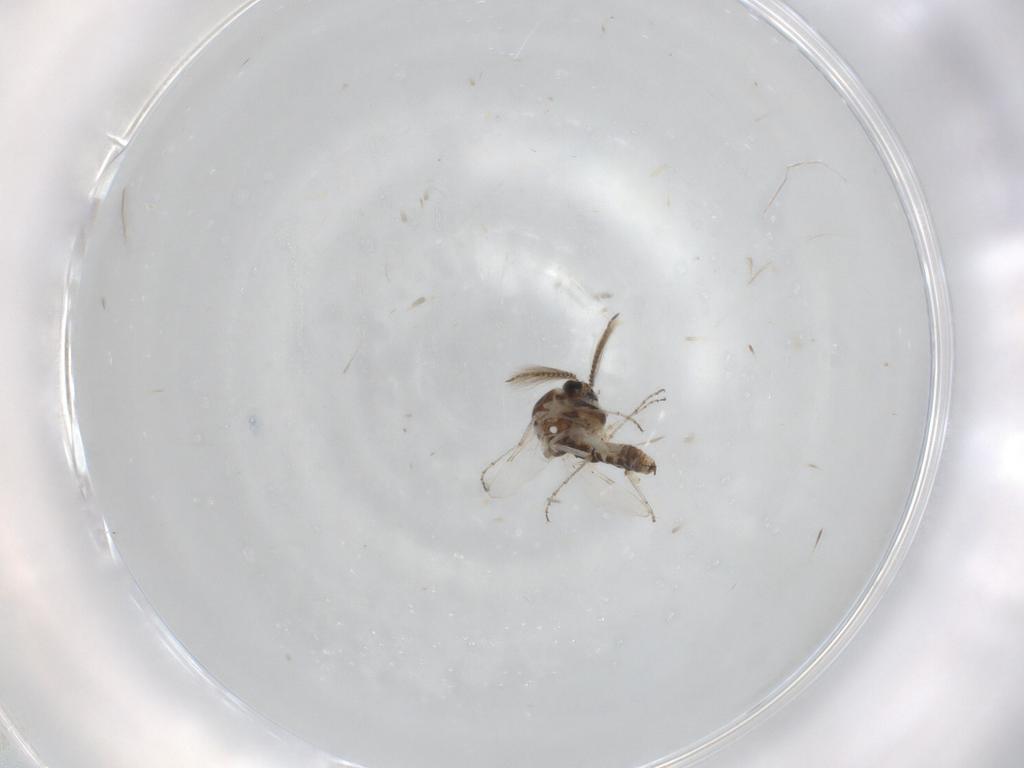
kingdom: Animalia
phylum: Arthropoda
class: Insecta
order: Diptera
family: Ceratopogonidae
